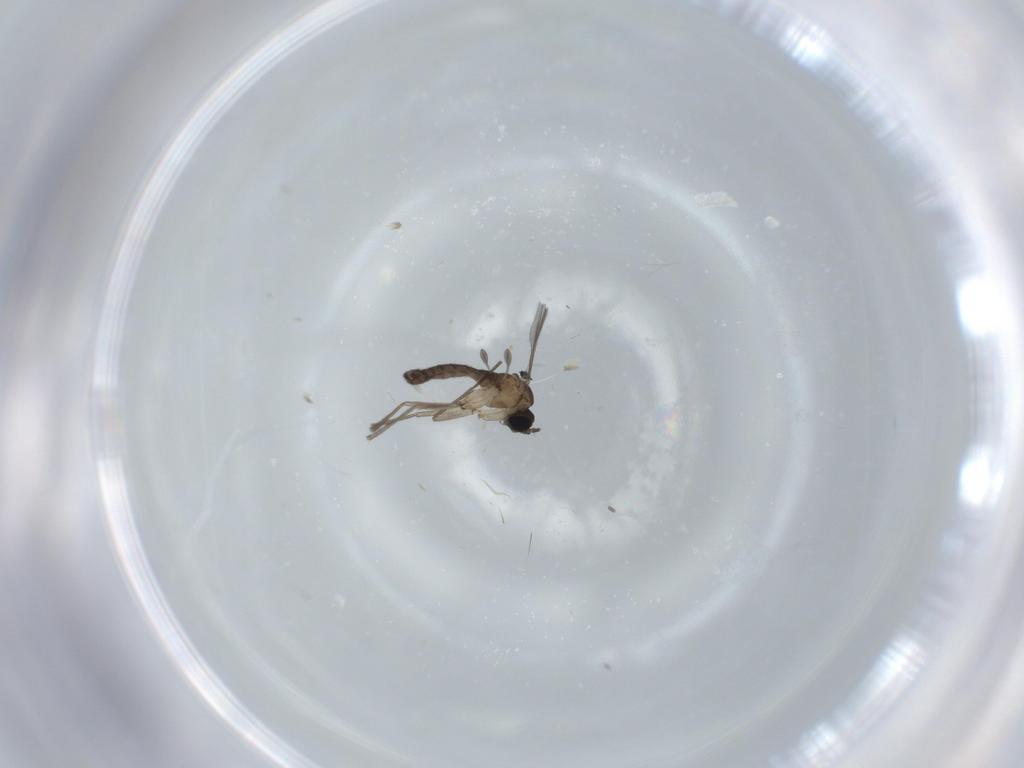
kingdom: Animalia
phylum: Arthropoda
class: Insecta
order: Diptera
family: Sciaridae
